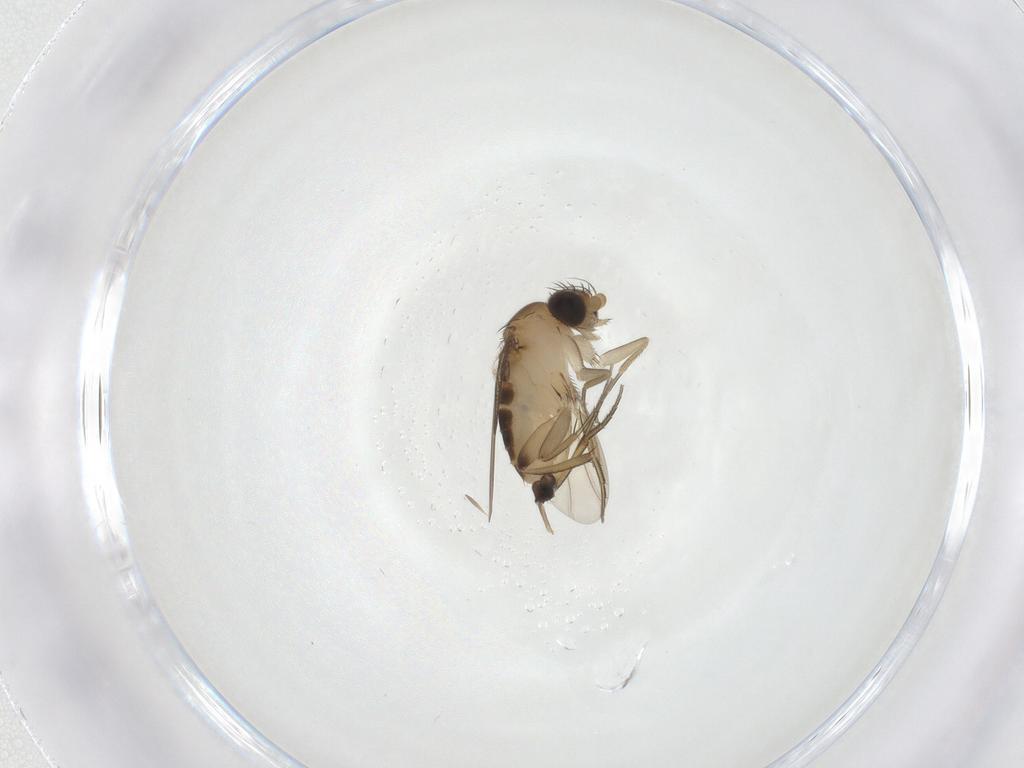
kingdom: Animalia
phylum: Arthropoda
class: Insecta
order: Diptera
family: Phoridae
